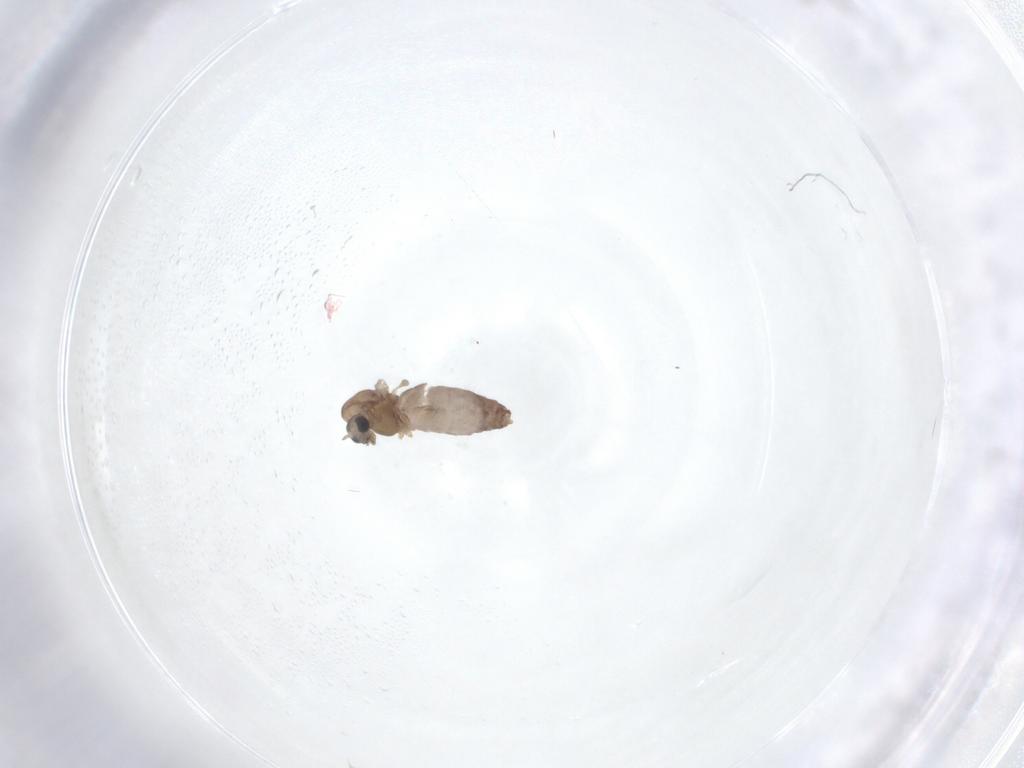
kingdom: Animalia
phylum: Arthropoda
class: Insecta
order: Diptera
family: Chironomidae
